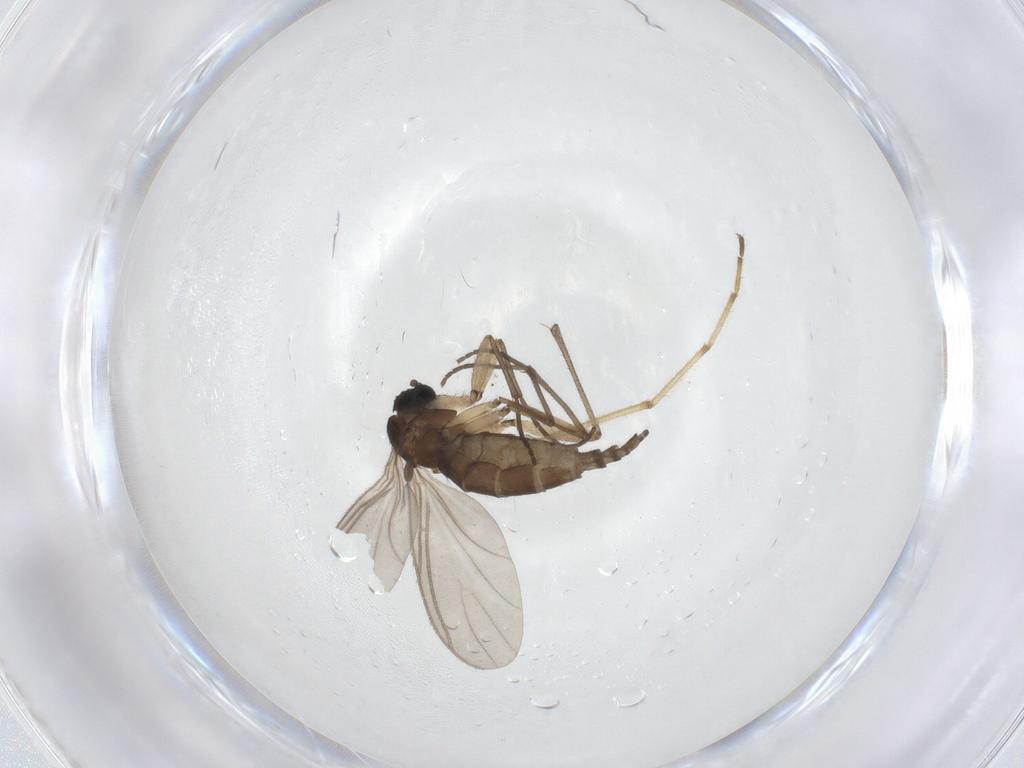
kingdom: Animalia
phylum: Arthropoda
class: Insecta
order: Diptera
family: Sciaridae
